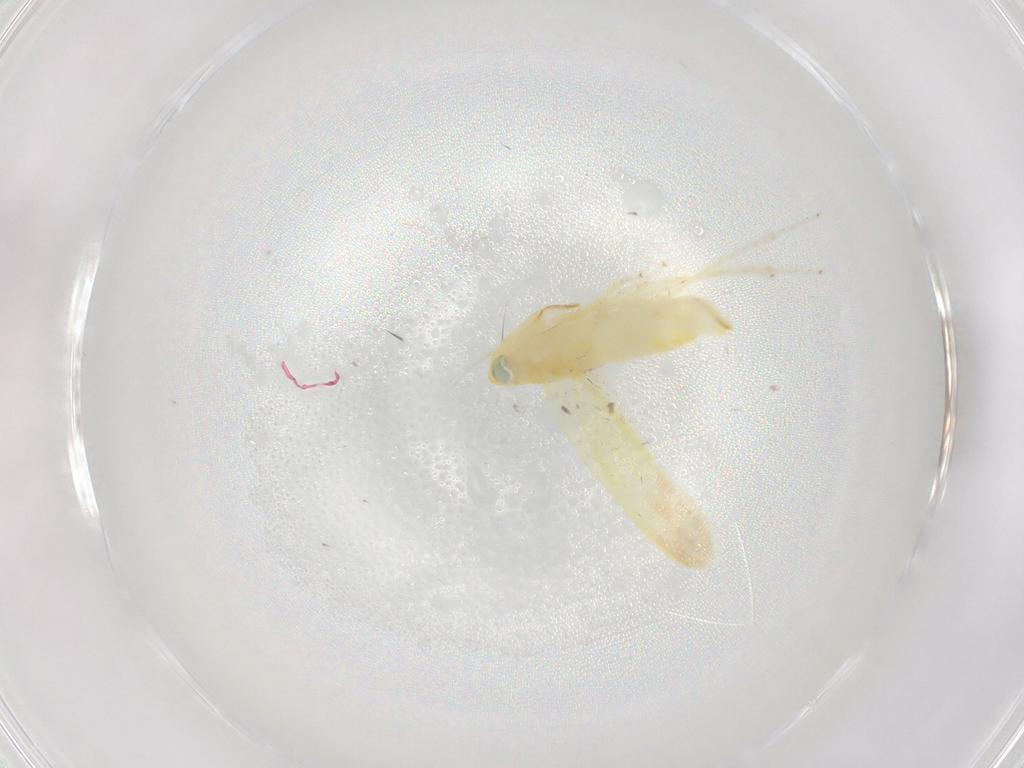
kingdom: Animalia
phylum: Arthropoda
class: Insecta
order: Hemiptera
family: Cicadellidae
